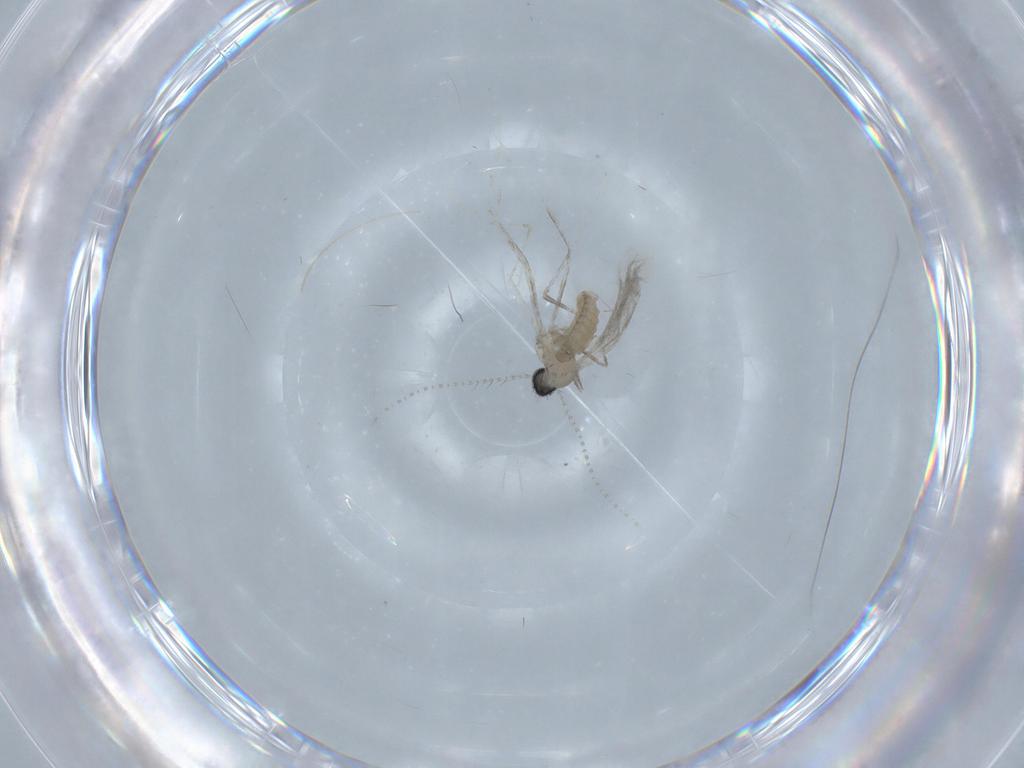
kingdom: Animalia
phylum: Arthropoda
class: Insecta
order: Diptera
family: Cecidomyiidae
